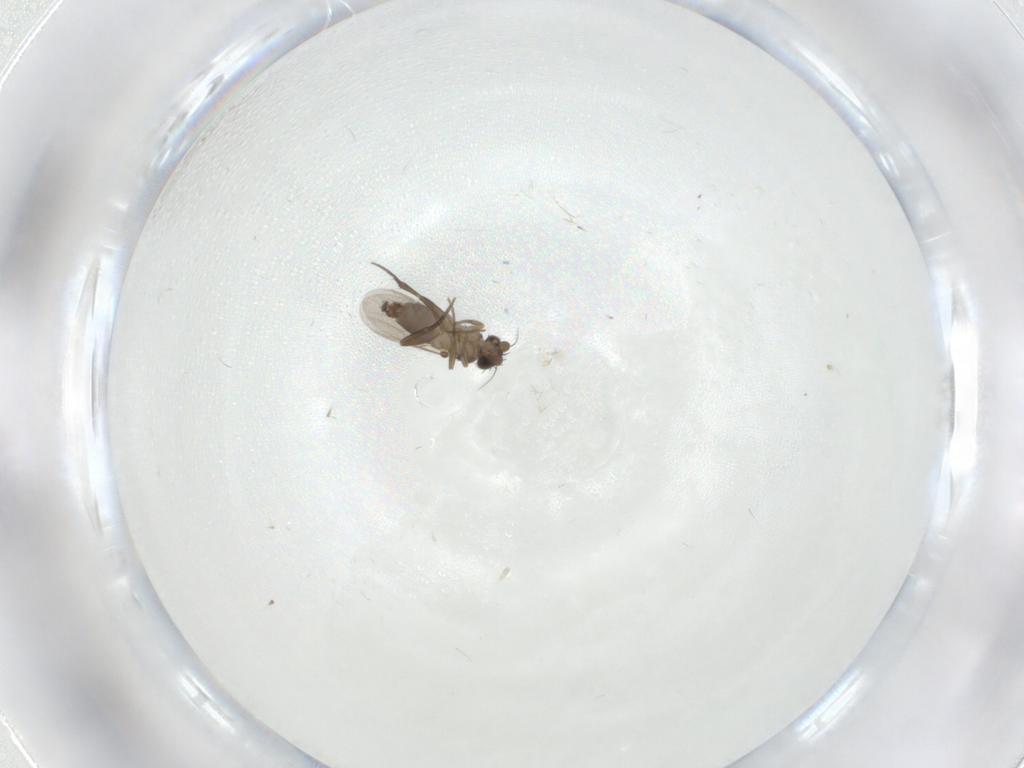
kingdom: Animalia
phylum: Arthropoda
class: Insecta
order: Diptera
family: Phoridae
